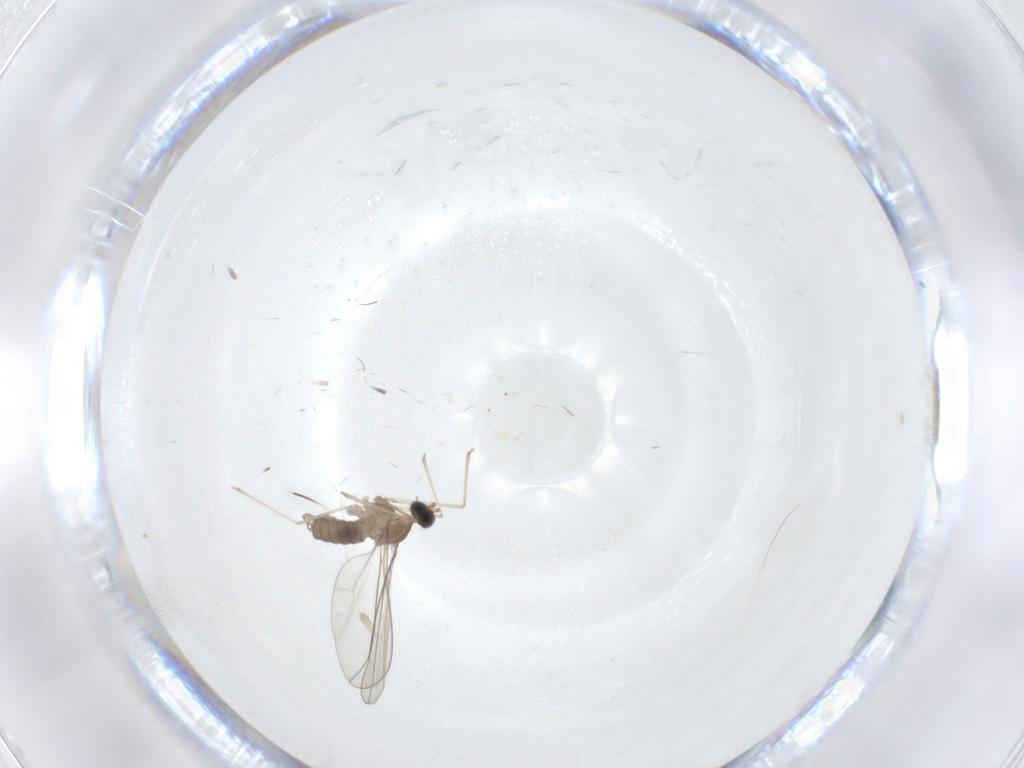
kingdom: Animalia
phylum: Arthropoda
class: Insecta
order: Diptera
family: Cecidomyiidae
